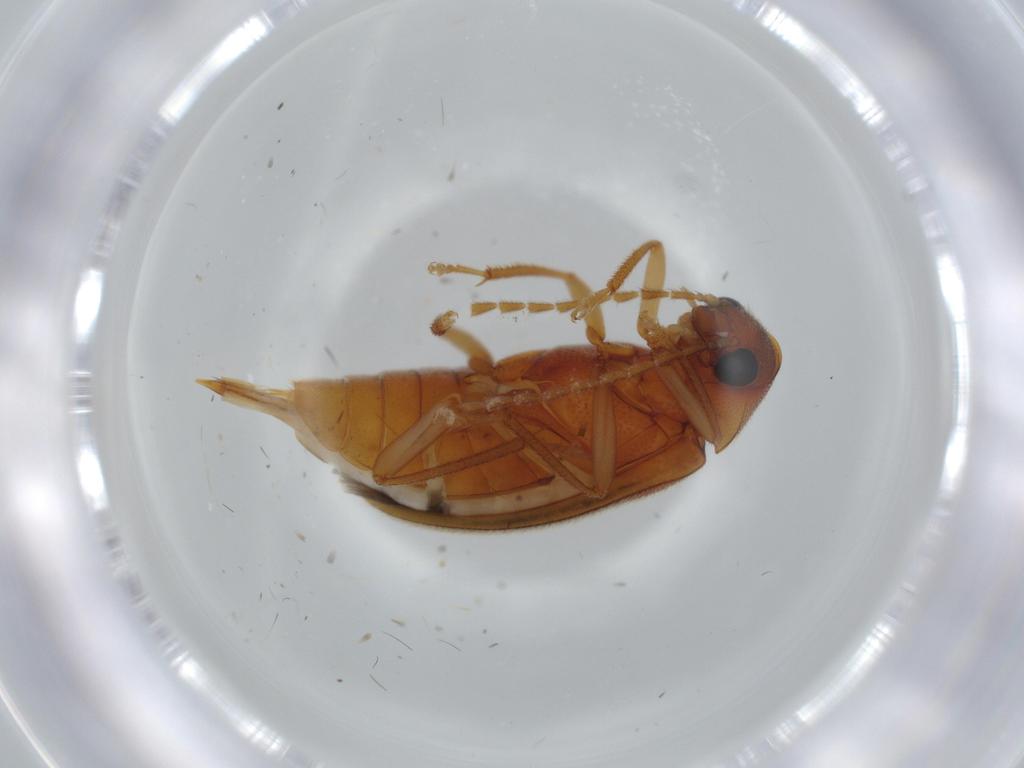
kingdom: Animalia
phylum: Arthropoda
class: Insecta
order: Coleoptera
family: Ptilodactylidae
